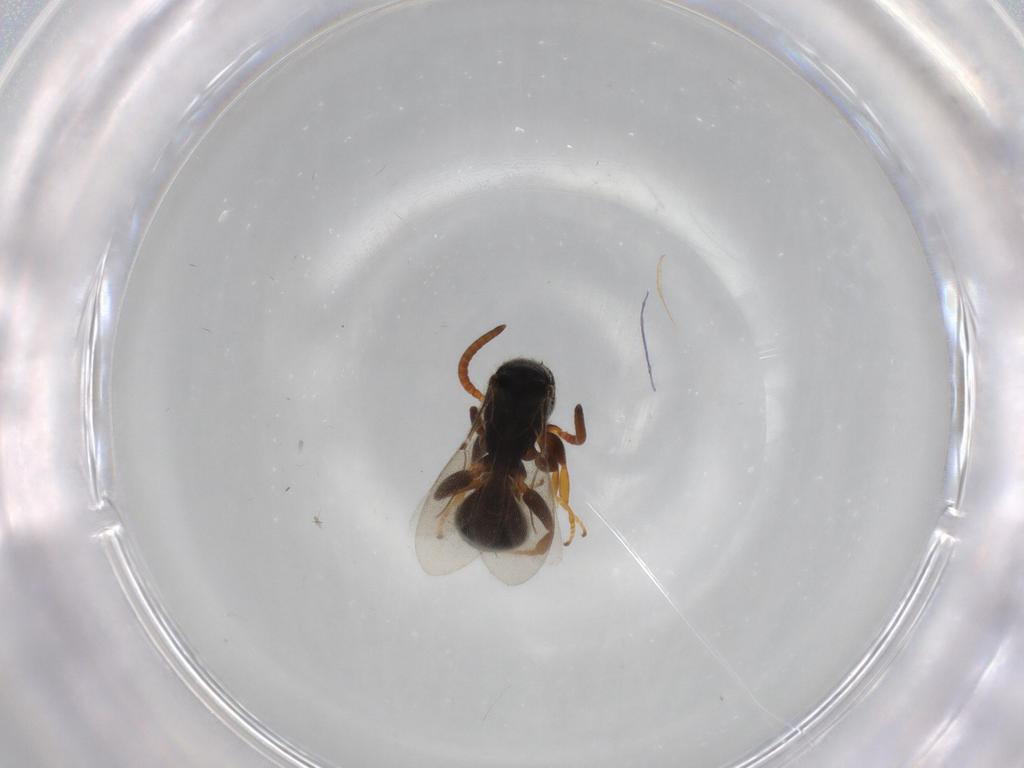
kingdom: Animalia
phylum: Arthropoda
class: Insecta
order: Hymenoptera
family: Bethylidae
